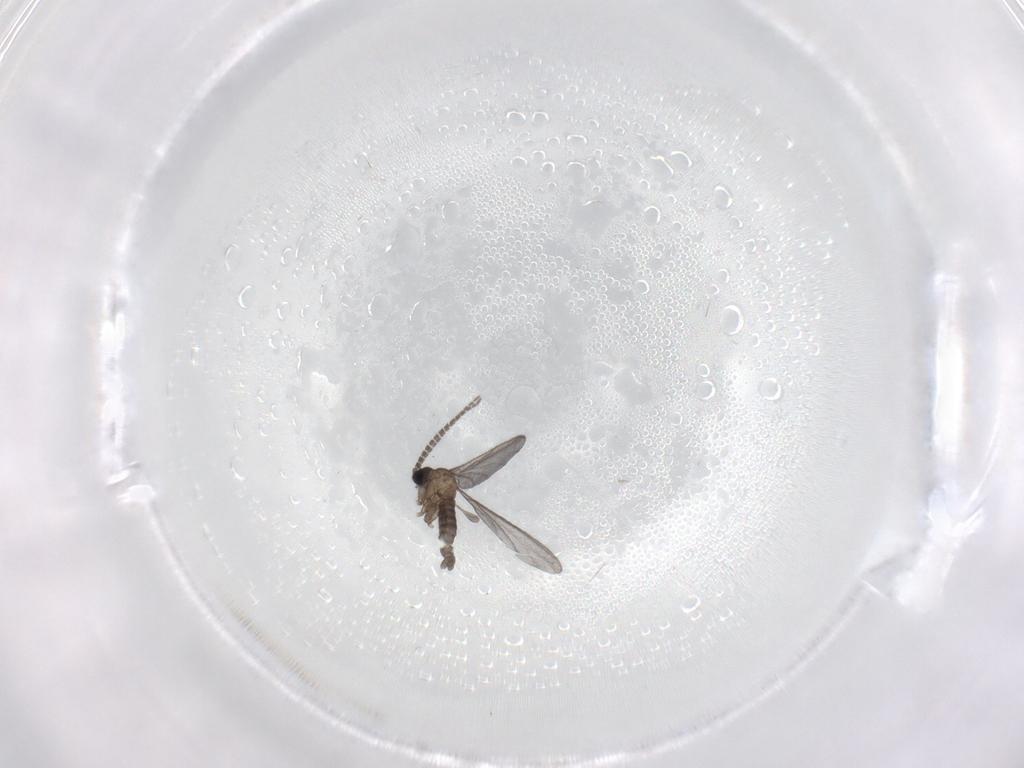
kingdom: Animalia
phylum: Arthropoda
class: Insecta
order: Diptera
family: Sciaridae
